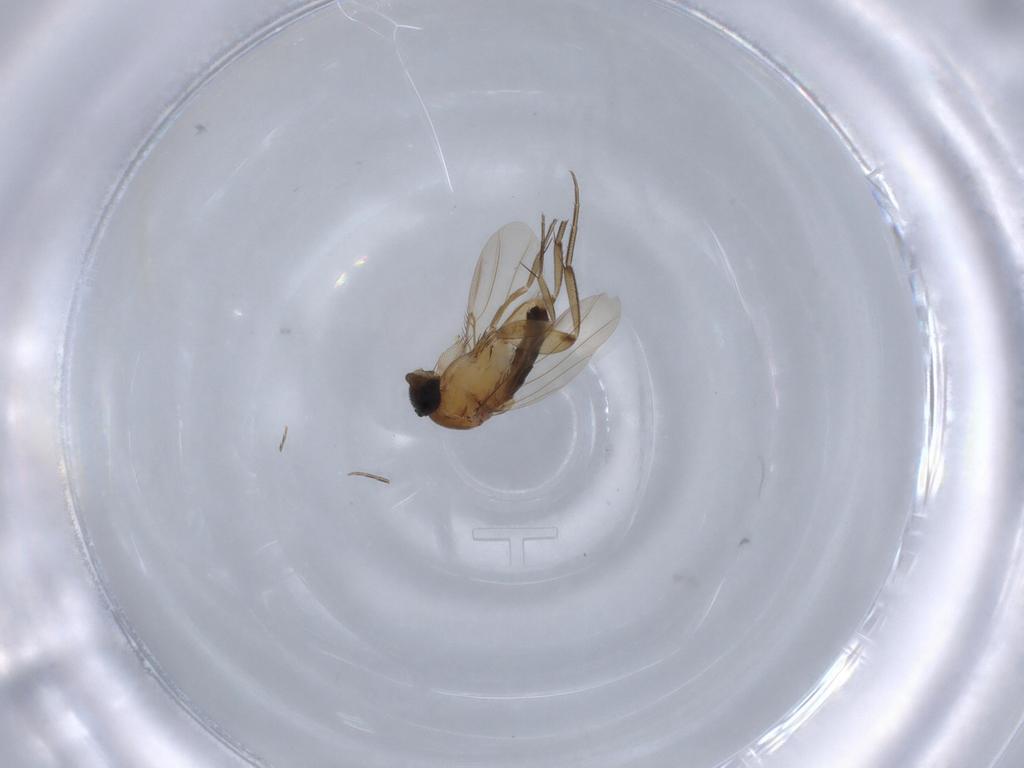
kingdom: Animalia
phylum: Arthropoda
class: Insecta
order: Diptera
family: Phoridae
